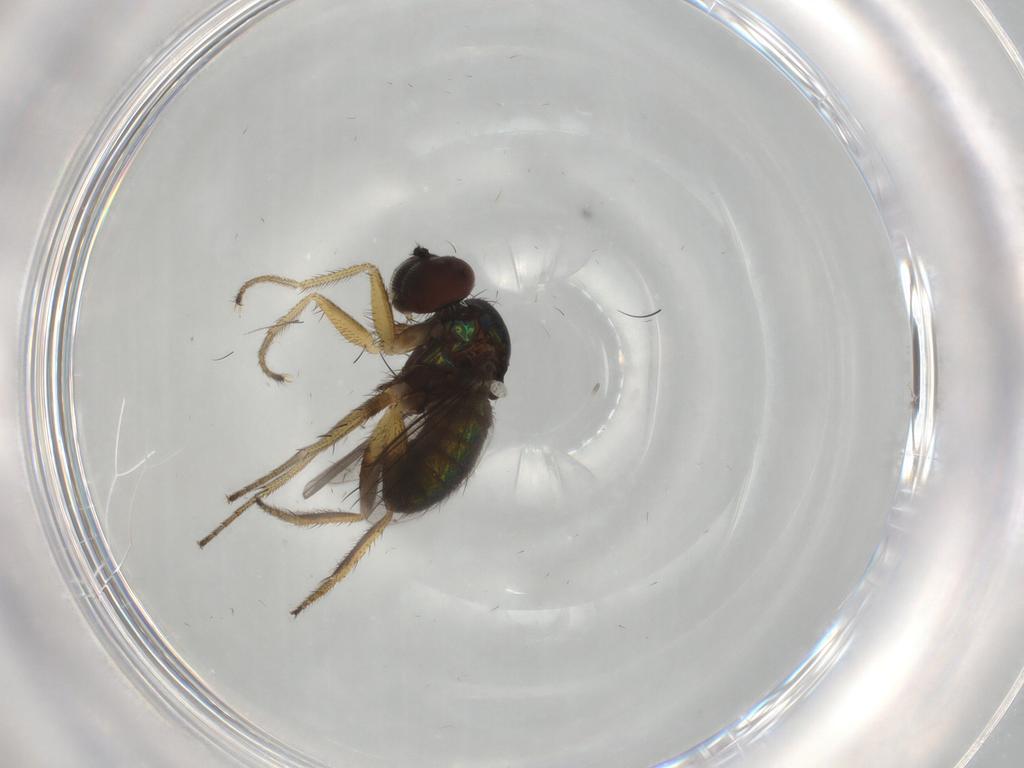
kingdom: Animalia
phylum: Arthropoda
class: Insecta
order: Diptera
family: Dolichopodidae
